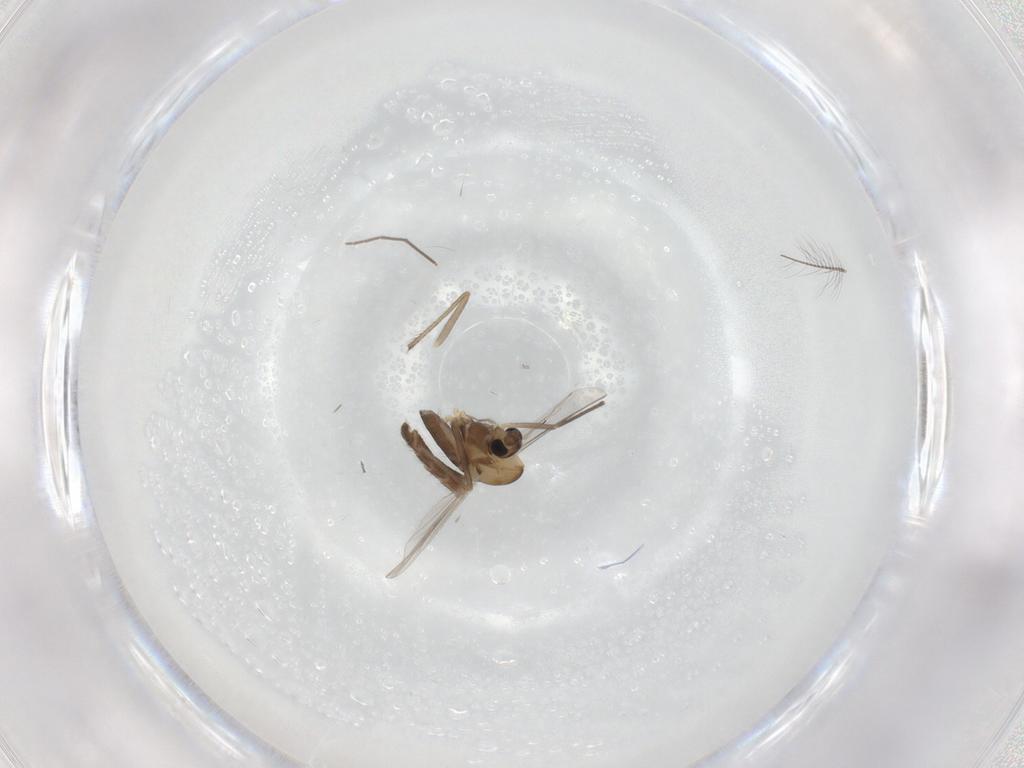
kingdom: Animalia
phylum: Arthropoda
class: Insecta
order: Diptera
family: Chironomidae
